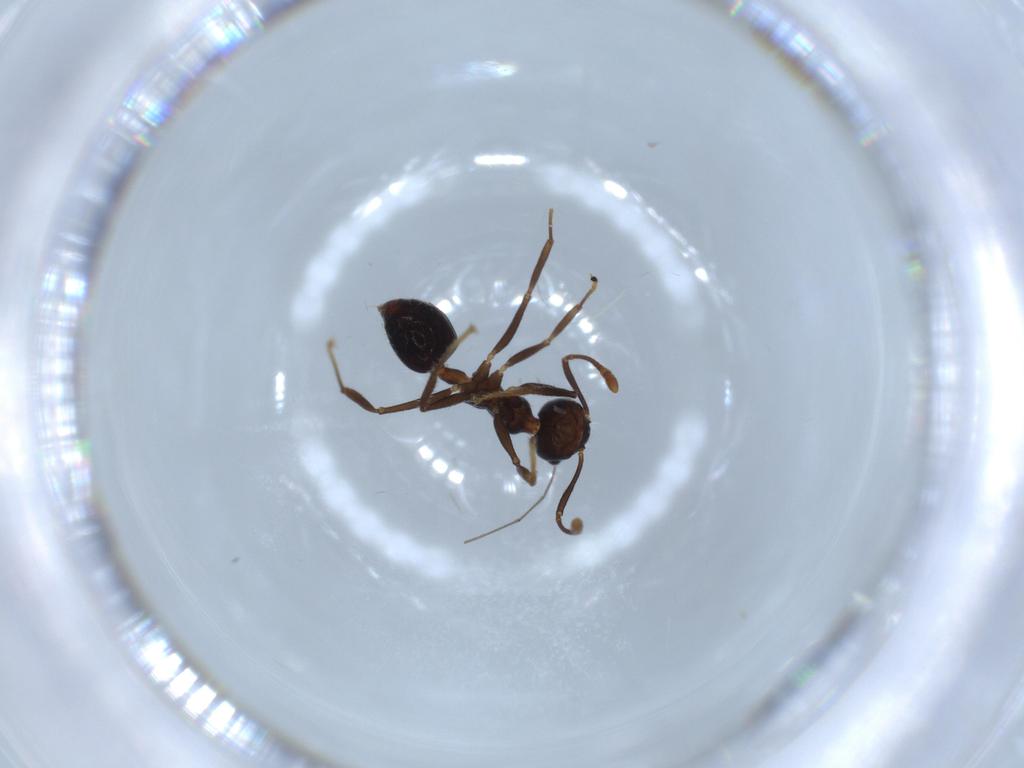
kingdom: Animalia
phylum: Arthropoda
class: Insecta
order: Hymenoptera
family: Formicidae
